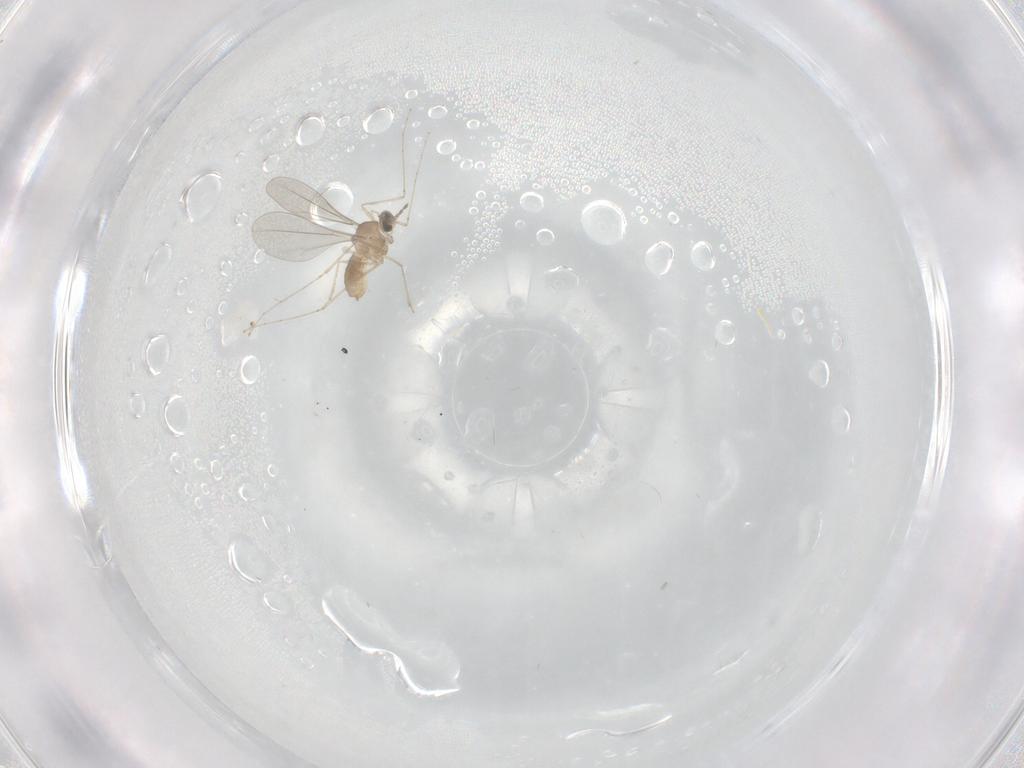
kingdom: Animalia
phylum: Arthropoda
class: Insecta
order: Diptera
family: Cecidomyiidae
